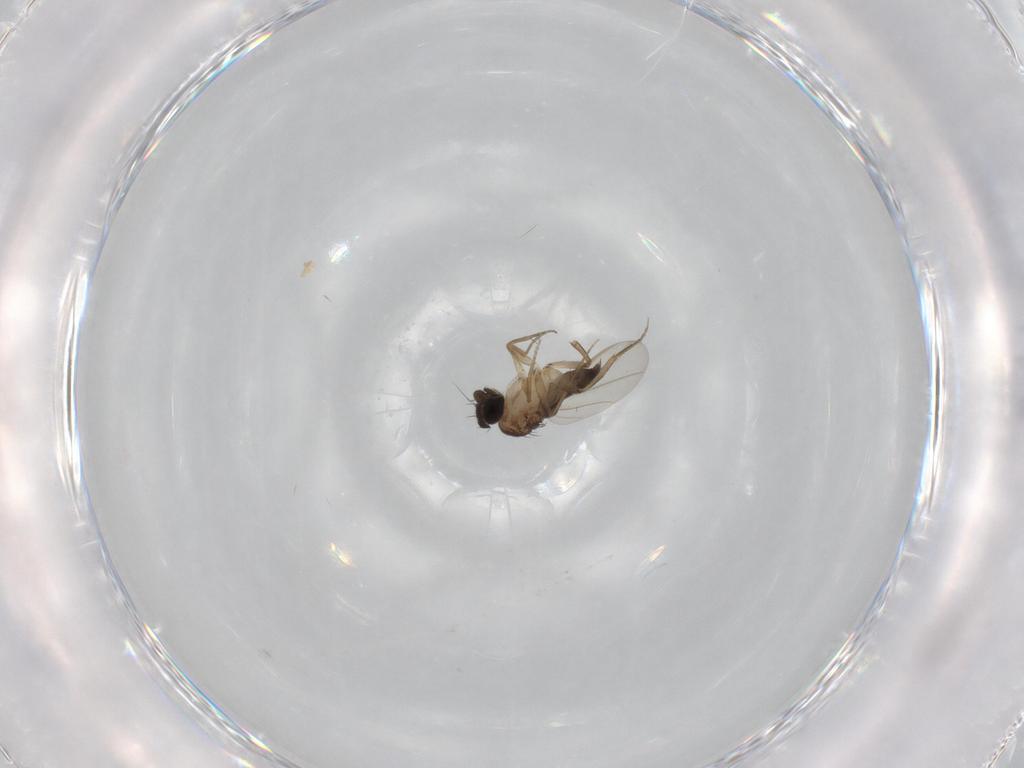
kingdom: Animalia
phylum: Arthropoda
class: Insecta
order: Diptera
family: Phoridae
